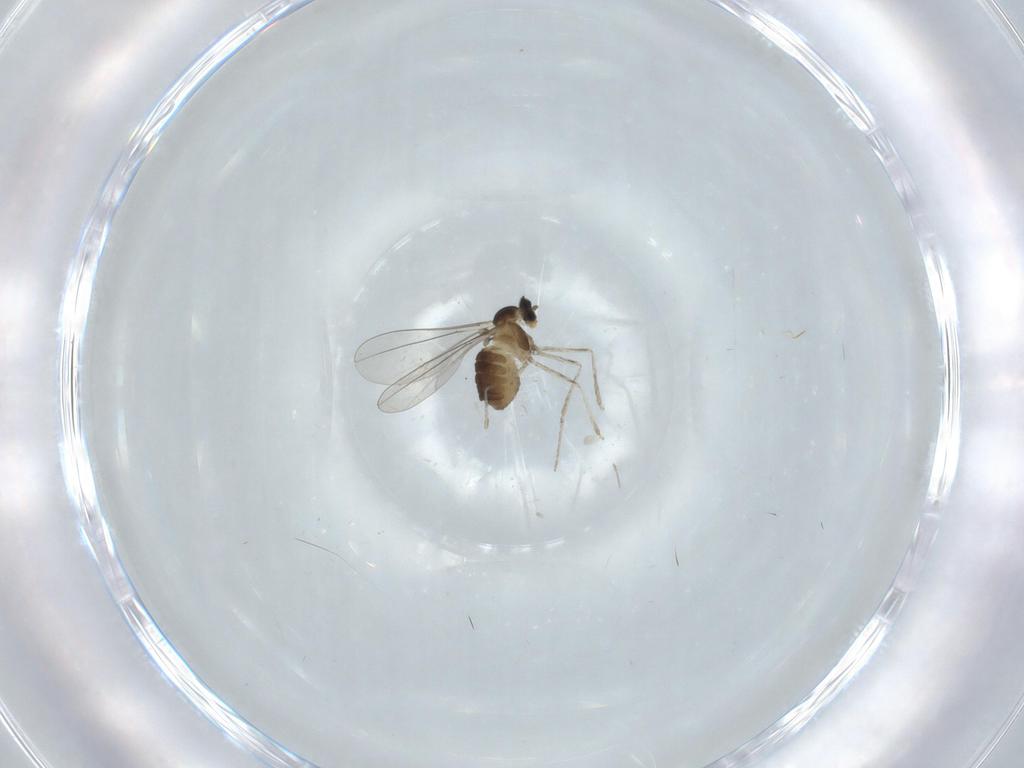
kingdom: Animalia
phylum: Arthropoda
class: Insecta
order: Diptera
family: Cecidomyiidae
